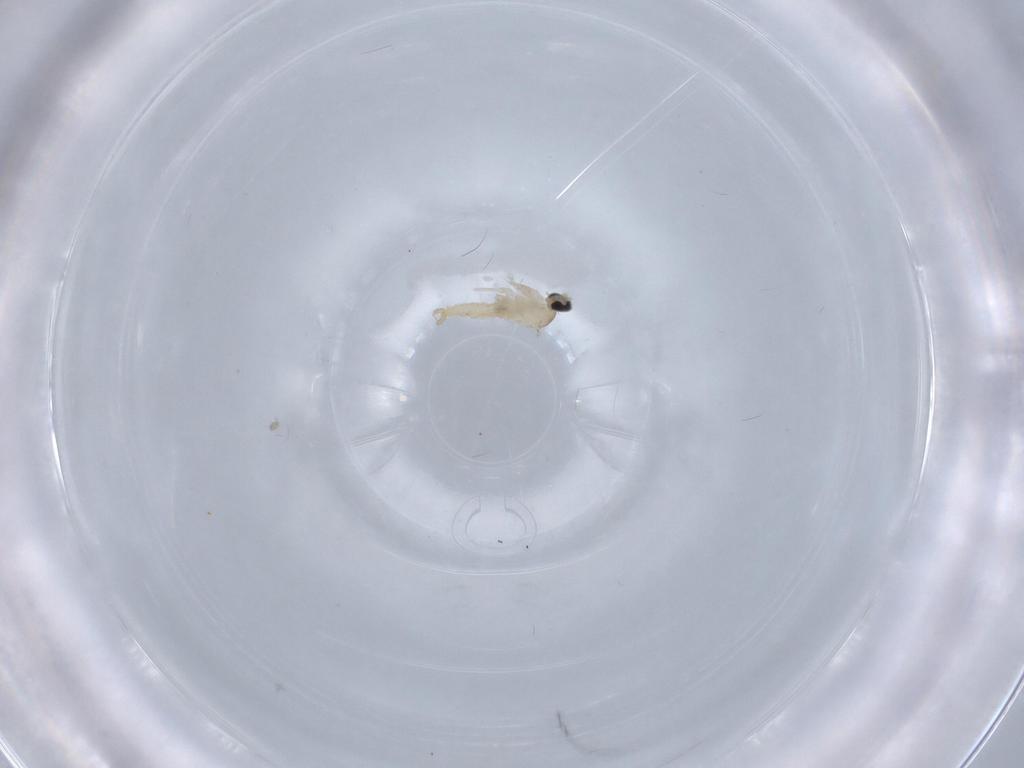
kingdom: Animalia
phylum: Arthropoda
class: Insecta
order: Diptera
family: Cecidomyiidae
